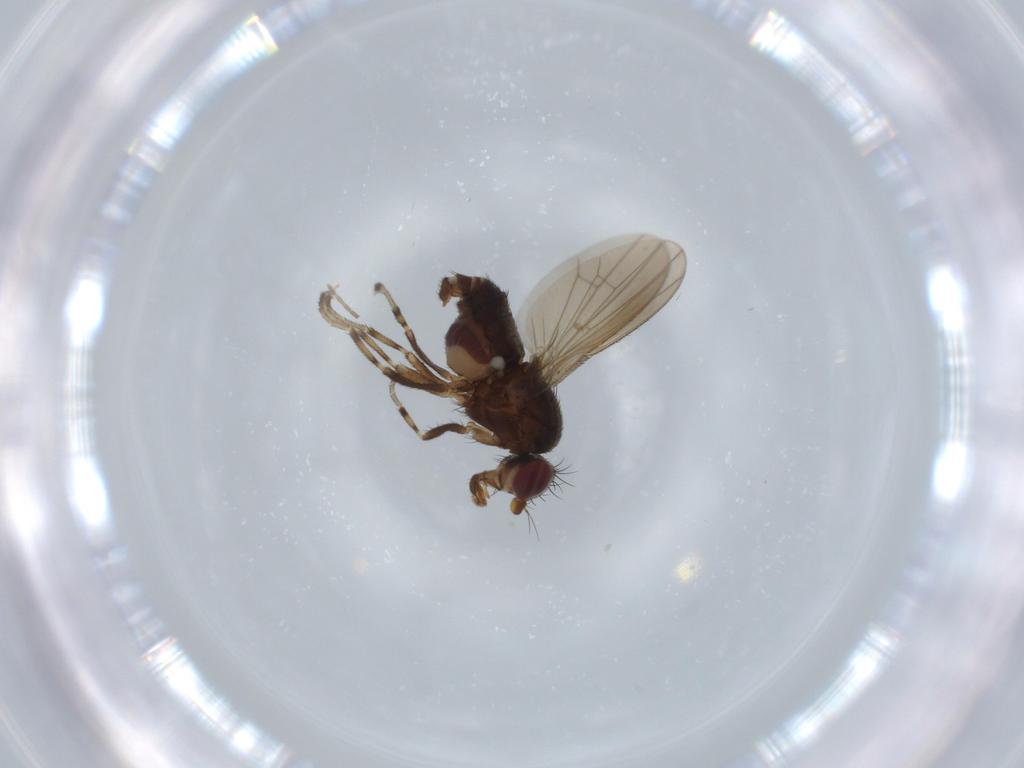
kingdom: Animalia
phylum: Arthropoda
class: Insecta
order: Diptera
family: Heleomyzidae
